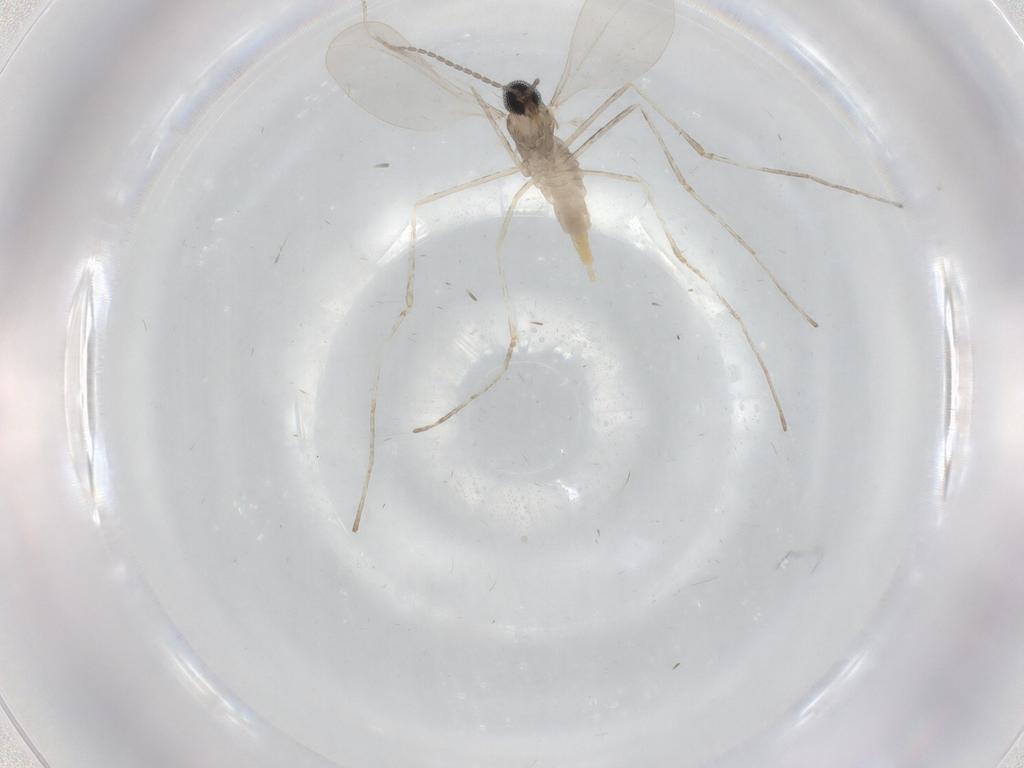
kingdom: Animalia
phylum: Arthropoda
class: Insecta
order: Diptera
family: Cecidomyiidae
